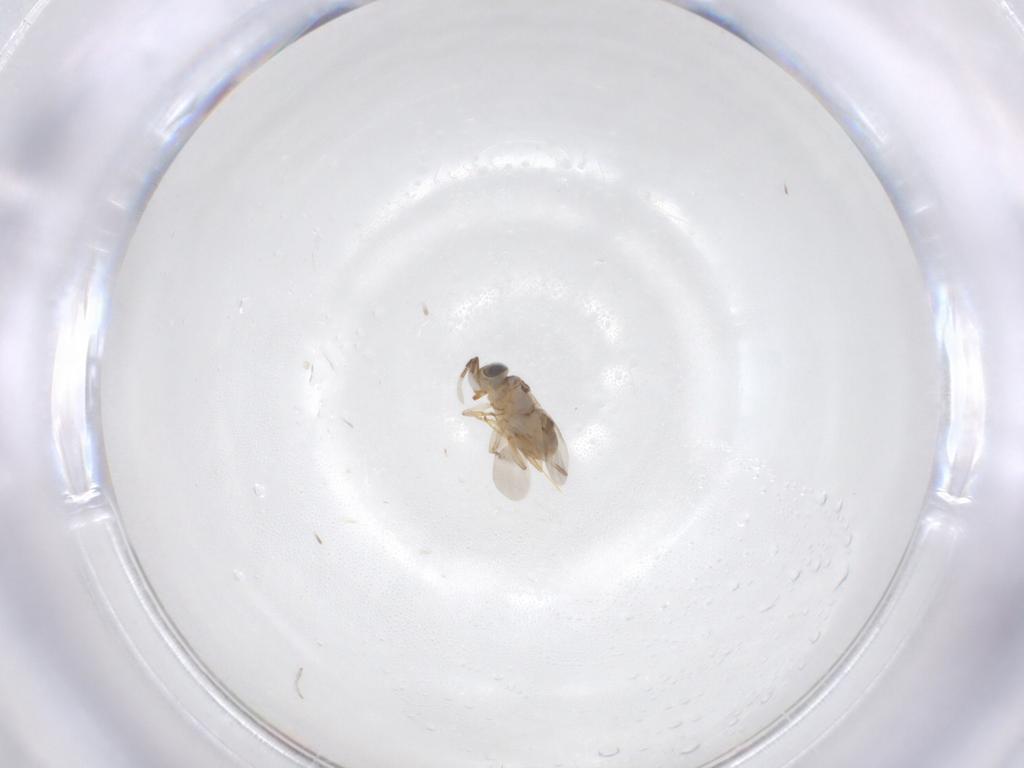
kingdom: Animalia
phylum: Arthropoda
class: Insecta
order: Hymenoptera
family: Encyrtidae
